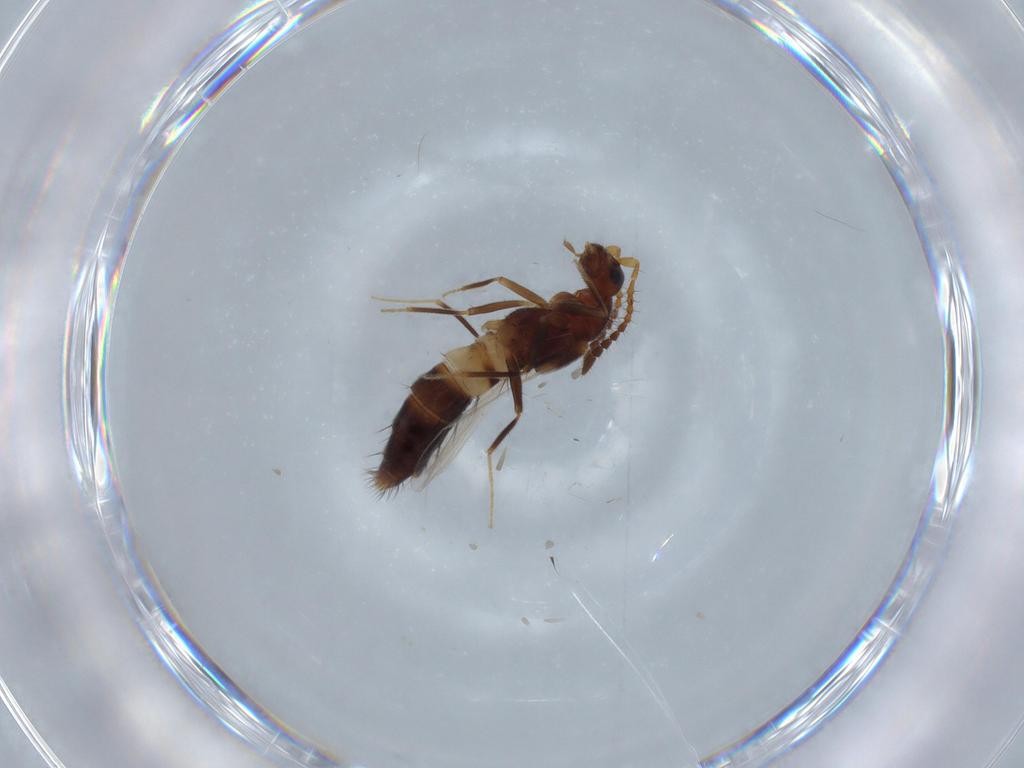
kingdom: Animalia
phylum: Arthropoda
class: Insecta
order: Coleoptera
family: Staphylinidae
